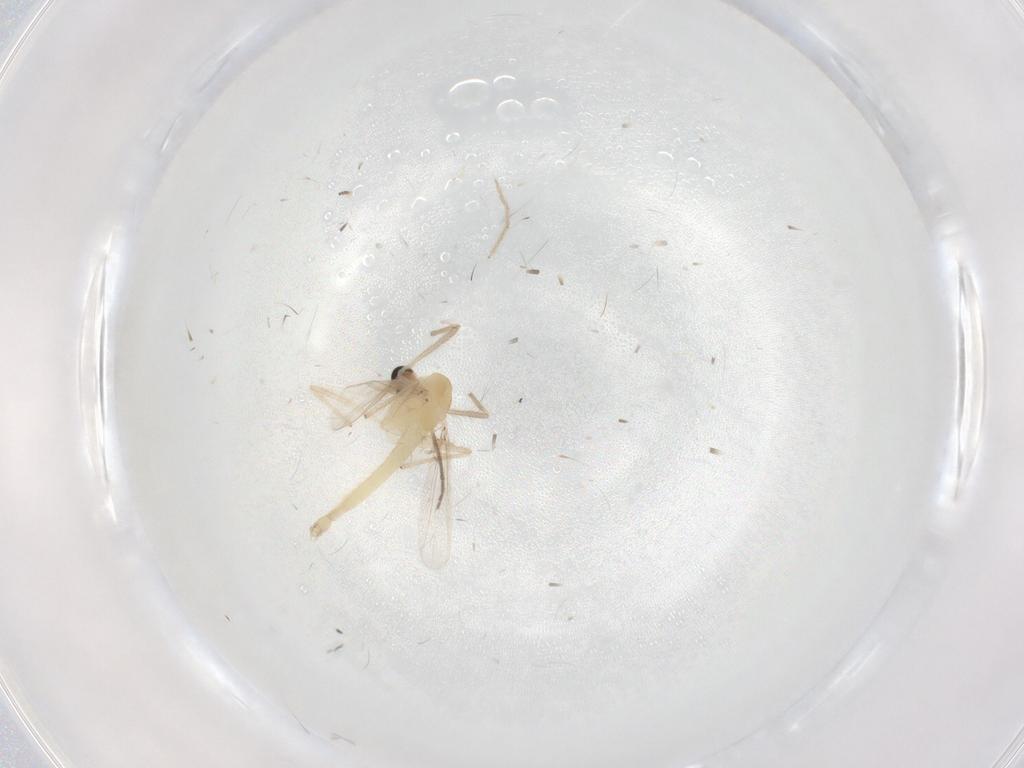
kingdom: Animalia
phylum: Arthropoda
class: Insecta
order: Diptera
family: Chironomidae
